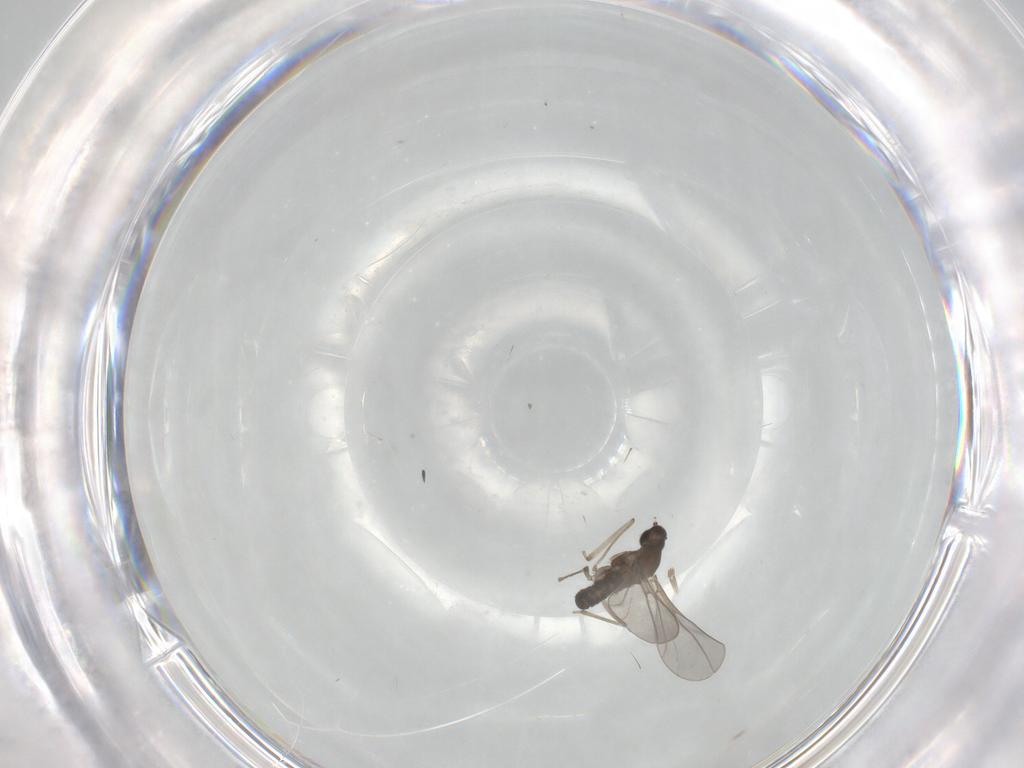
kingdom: Animalia
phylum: Arthropoda
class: Insecta
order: Diptera
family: Cecidomyiidae
